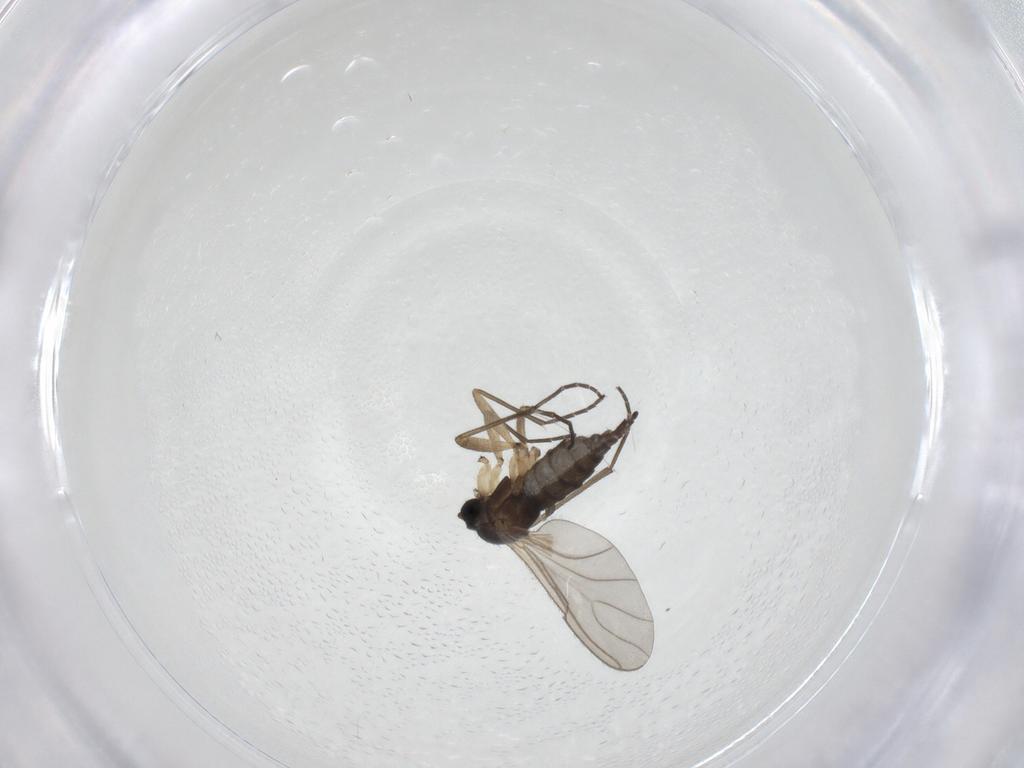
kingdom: Animalia
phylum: Arthropoda
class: Insecta
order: Diptera
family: Sciaridae
